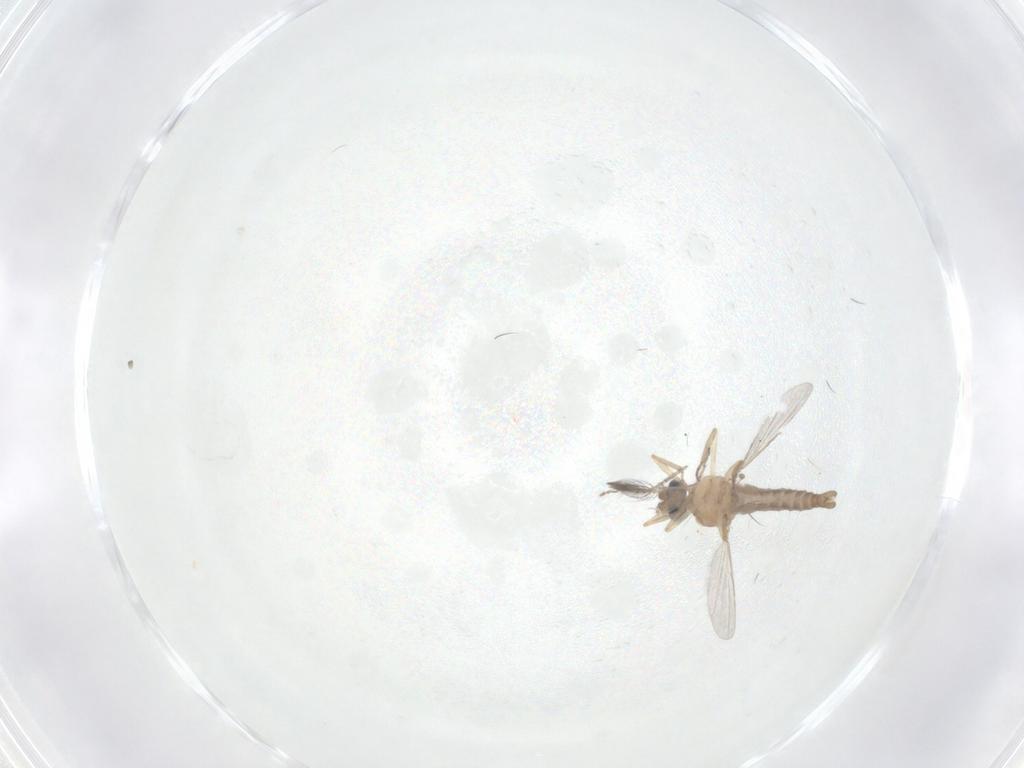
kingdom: Animalia
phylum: Arthropoda
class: Insecta
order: Diptera
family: Ceratopogonidae
